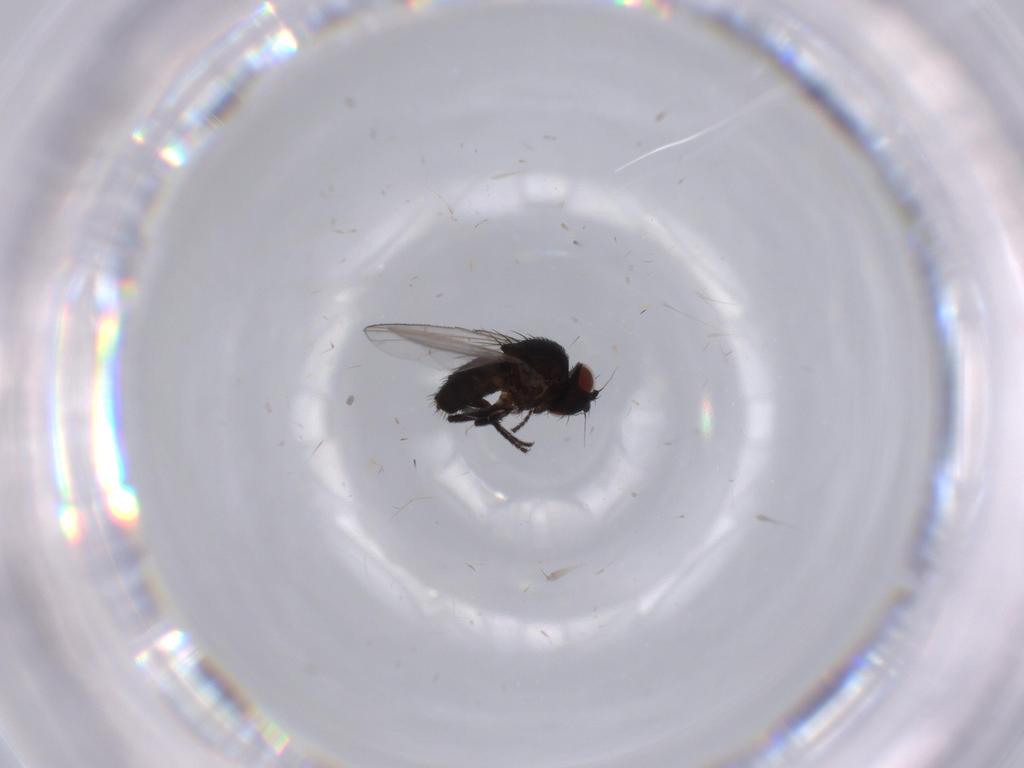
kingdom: Animalia
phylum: Arthropoda
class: Insecta
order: Diptera
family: Milichiidae
